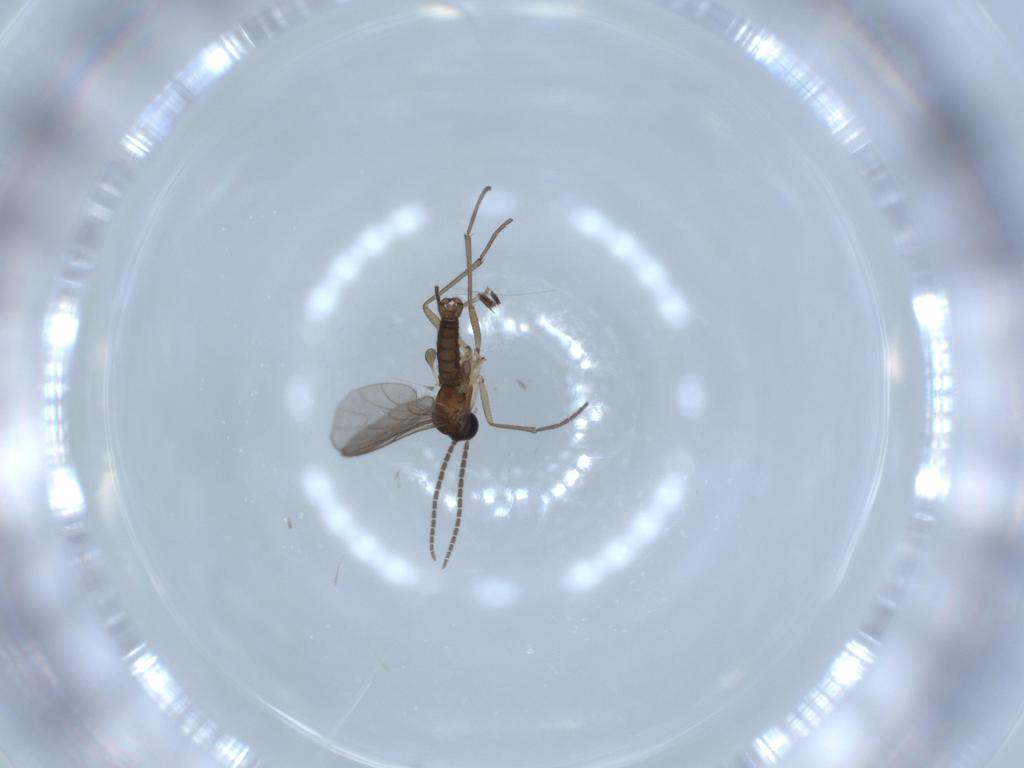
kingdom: Animalia
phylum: Arthropoda
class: Insecta
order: Diptera
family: Sciaridae
